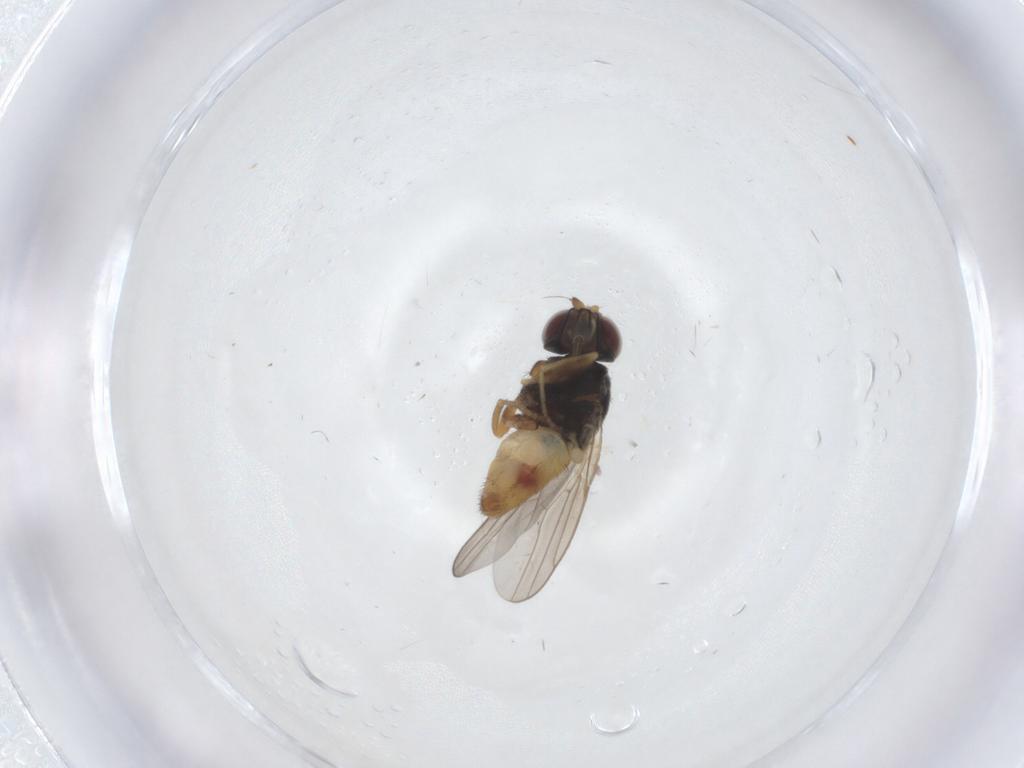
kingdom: Animalia
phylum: Arthropoda
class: Insecta
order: Diptera
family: Chloropidae
